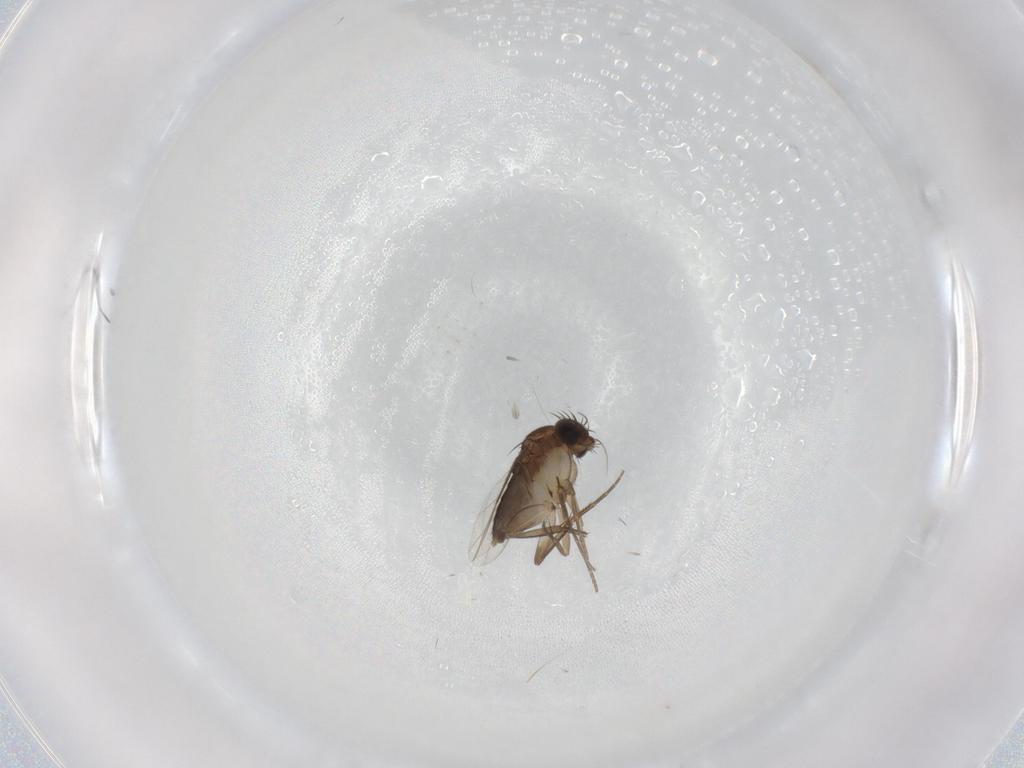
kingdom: Animalia
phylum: Arthropoda
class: Insecta
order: Diptera
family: Phoridae
